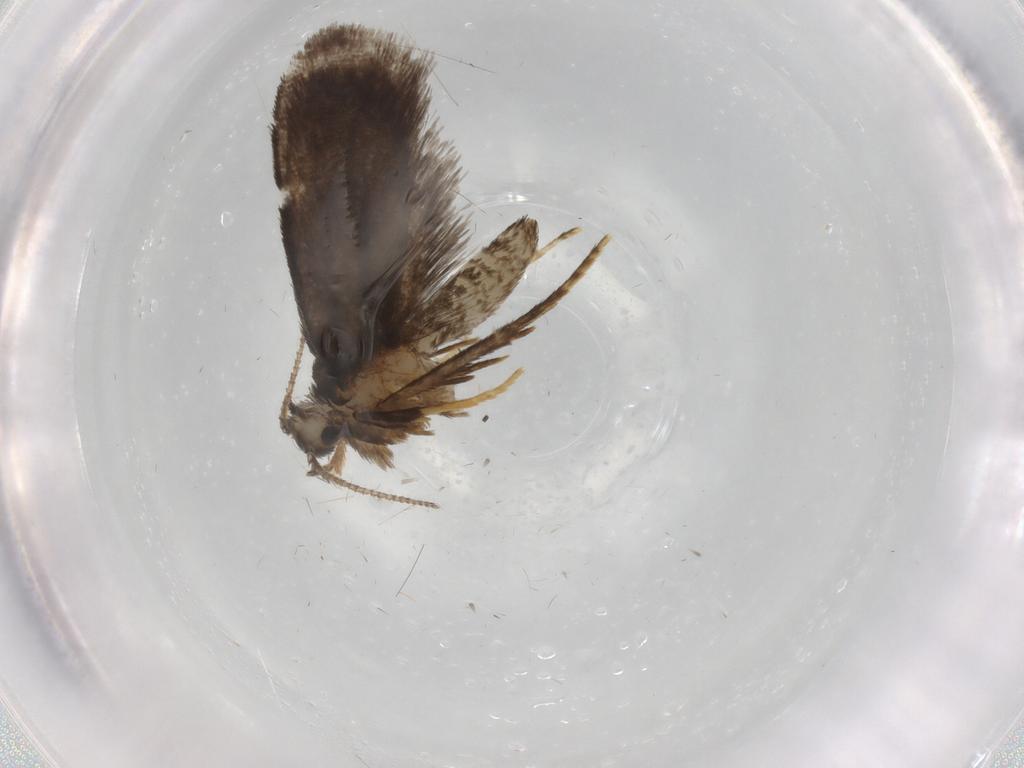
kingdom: Animalia
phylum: Arthropoda
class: Insecta
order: Lepidoptera
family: Psychidae
